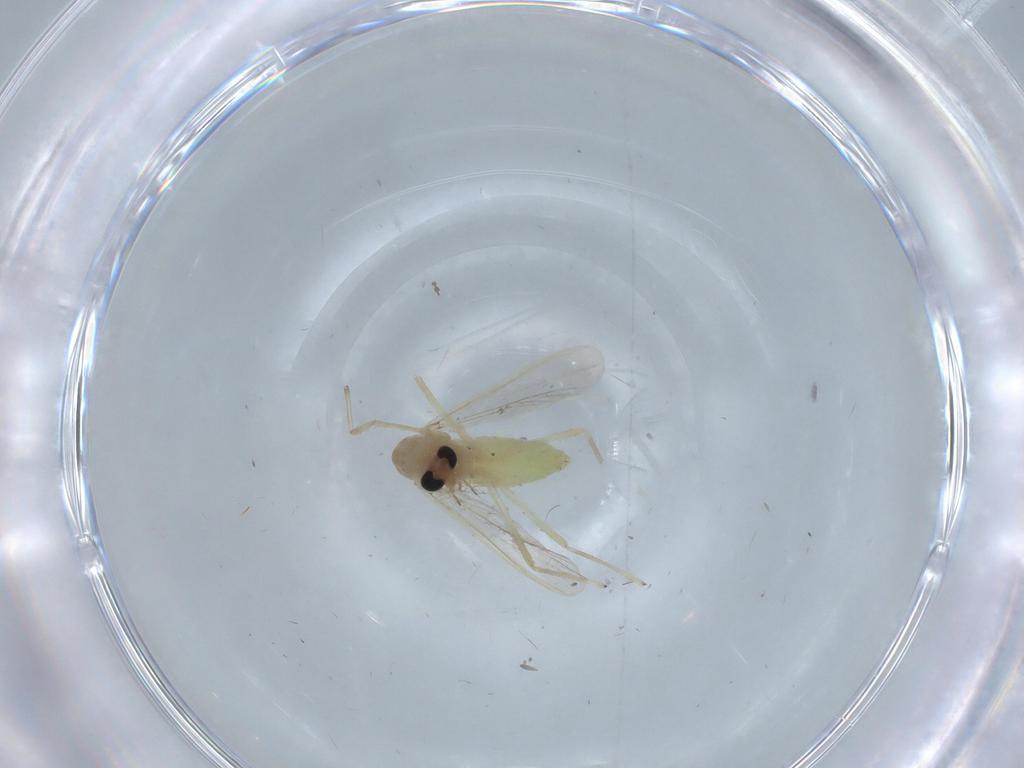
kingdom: Animalia
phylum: Arthropoda
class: Insecta
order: Diptera
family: Chironomidae
